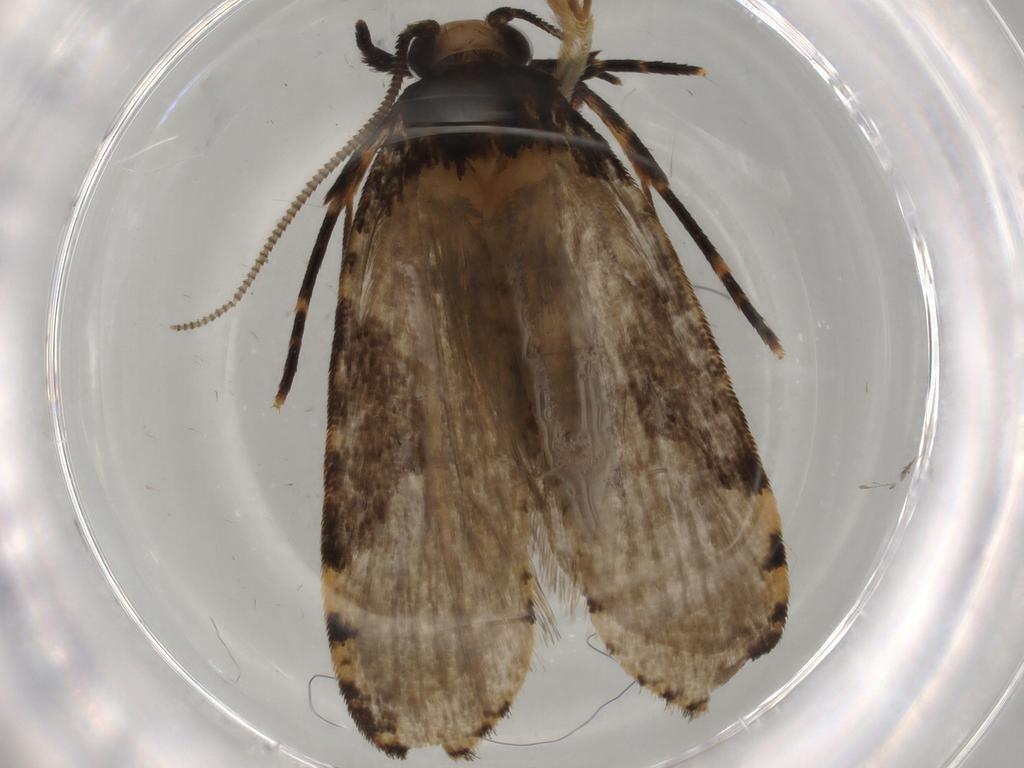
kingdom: Animalia
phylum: Arthropoda
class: Insecta
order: Lepidoptera
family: Tineidae
